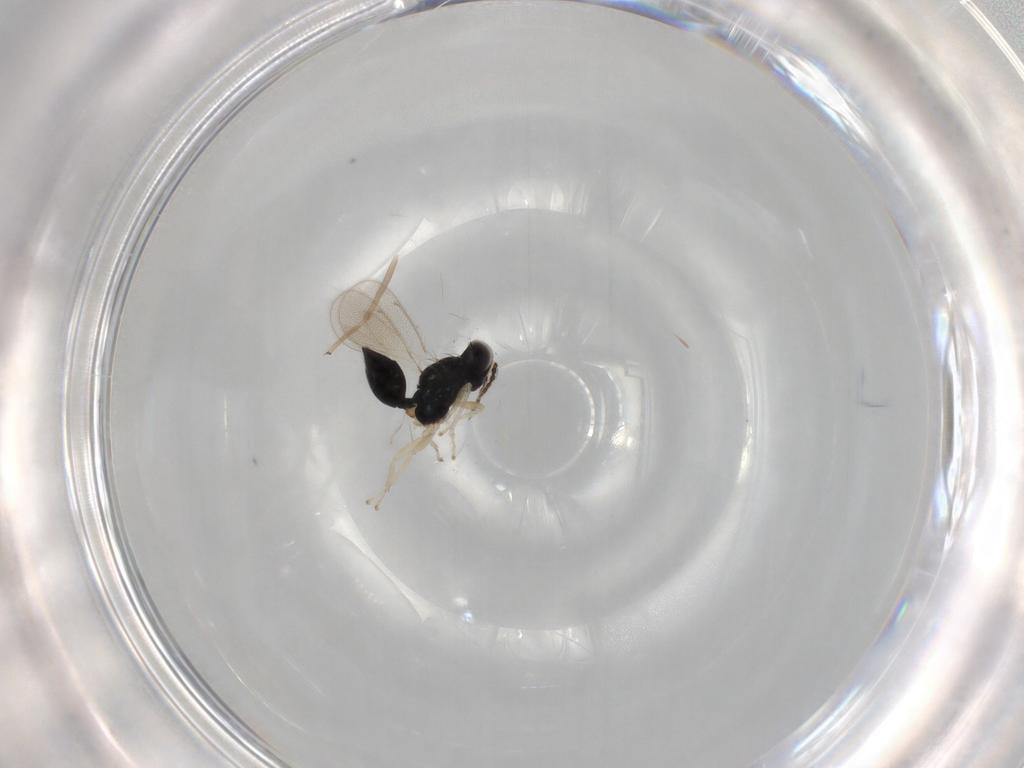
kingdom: Animalia
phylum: Arthropoda
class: Insecta
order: Hymenoptera
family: Eulophidae
